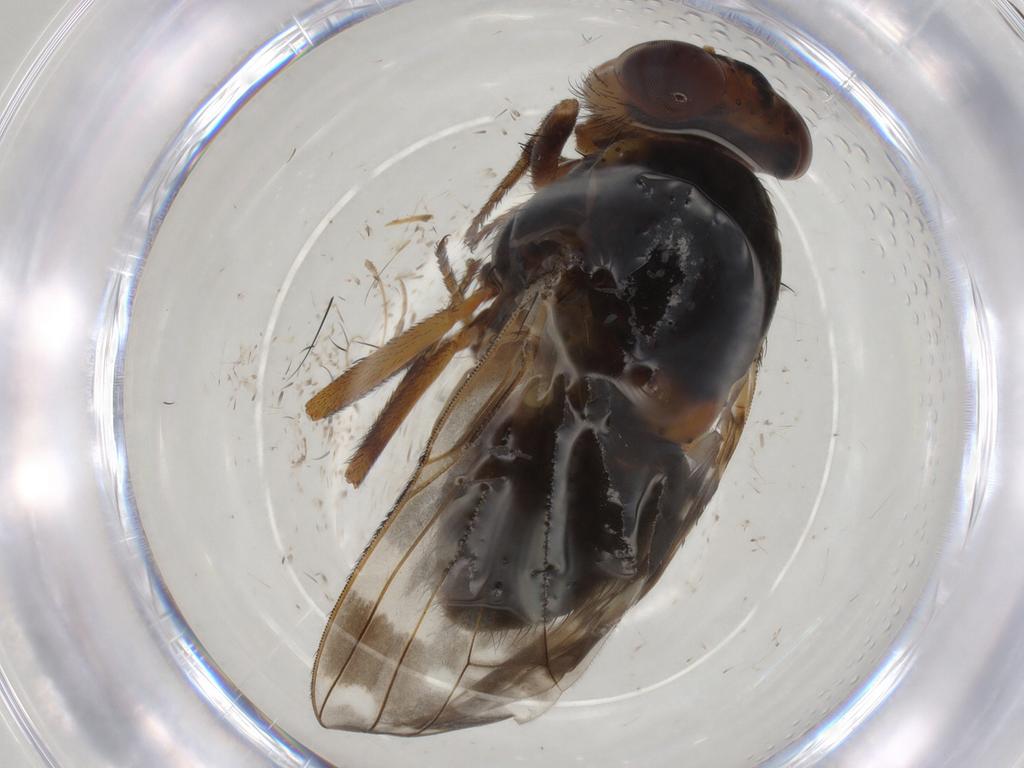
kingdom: Animalia
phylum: Arthropoda
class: Insecta
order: Diptera
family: Chloropidae
